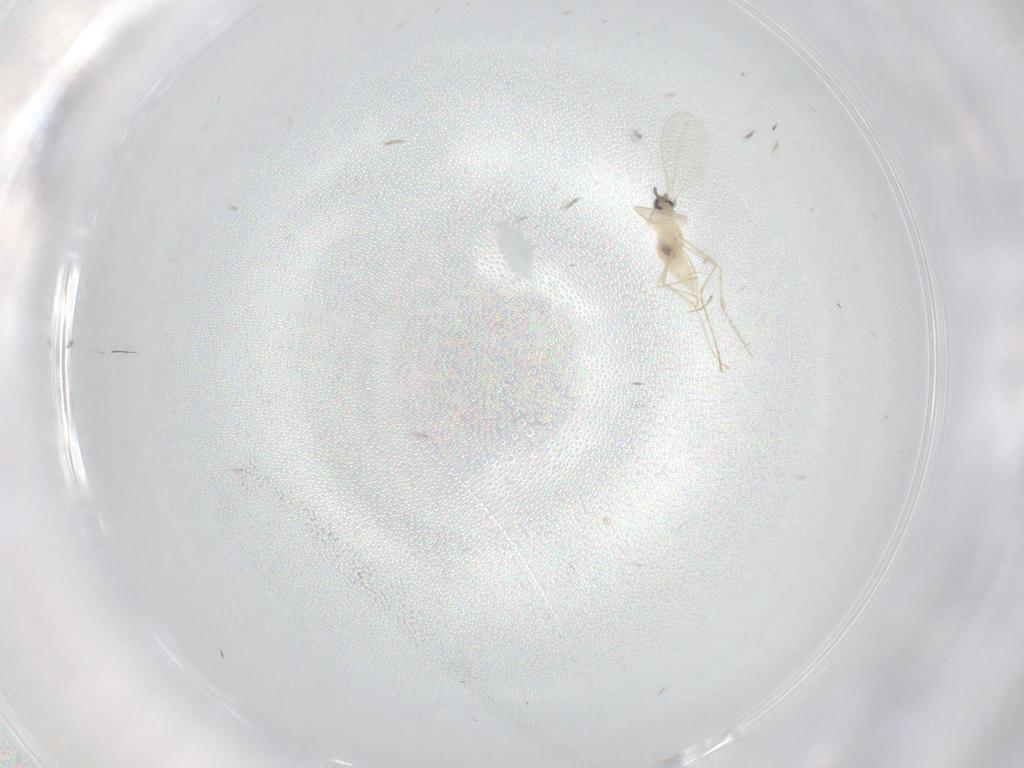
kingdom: Animalia
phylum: Arthropoda
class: Insecta
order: Diptera
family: Cecidomyiidae
